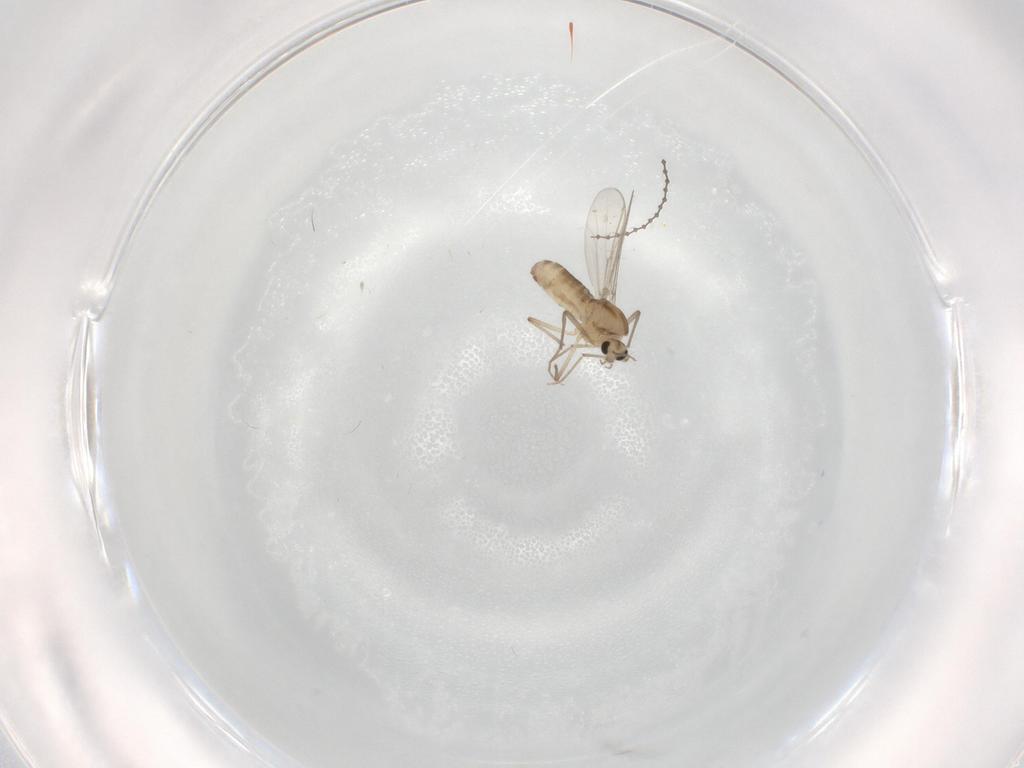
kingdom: Animalia
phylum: Arthropoda
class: Insecta
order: Diptera
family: Cecidomyiidae
